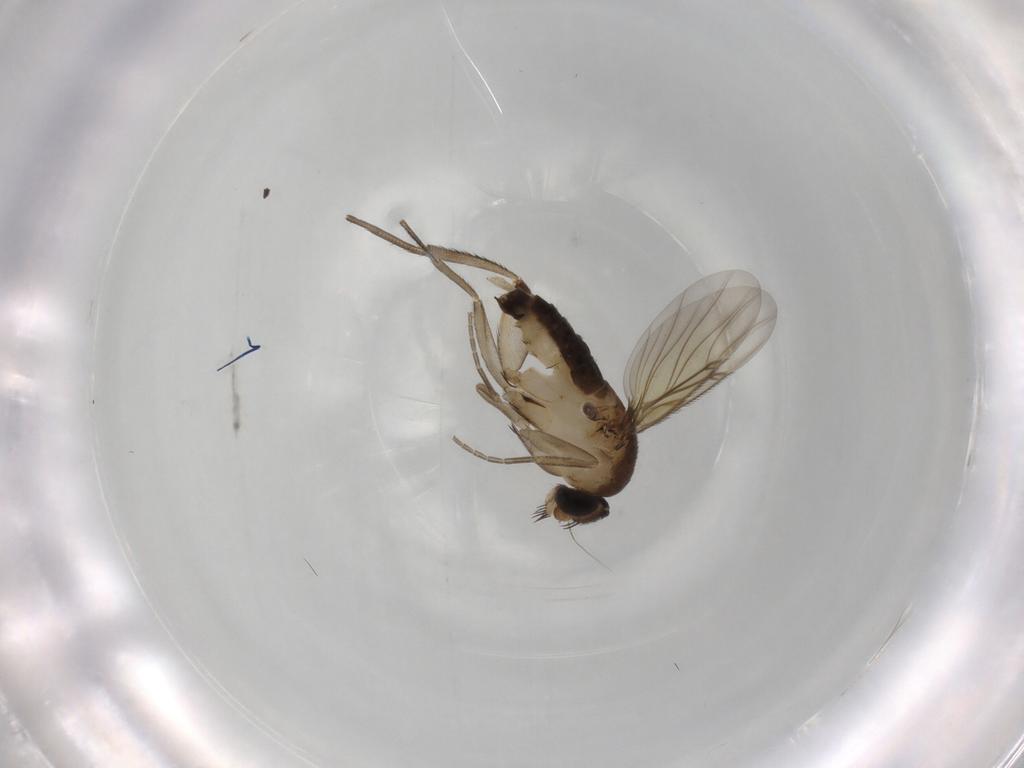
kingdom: Animalia
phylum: Arthropoda
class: Insecta
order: Diptera
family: Phoridae
